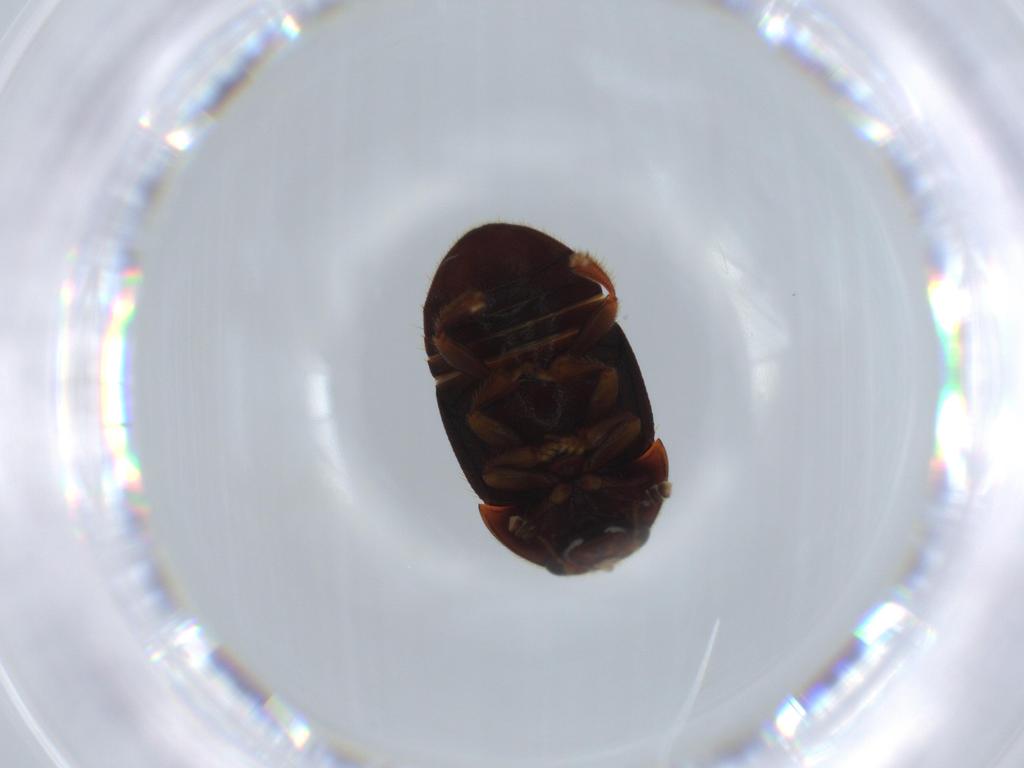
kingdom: Animalia
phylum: Arthropoda
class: Insecta
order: Coleoptera
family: Nitidulidae
